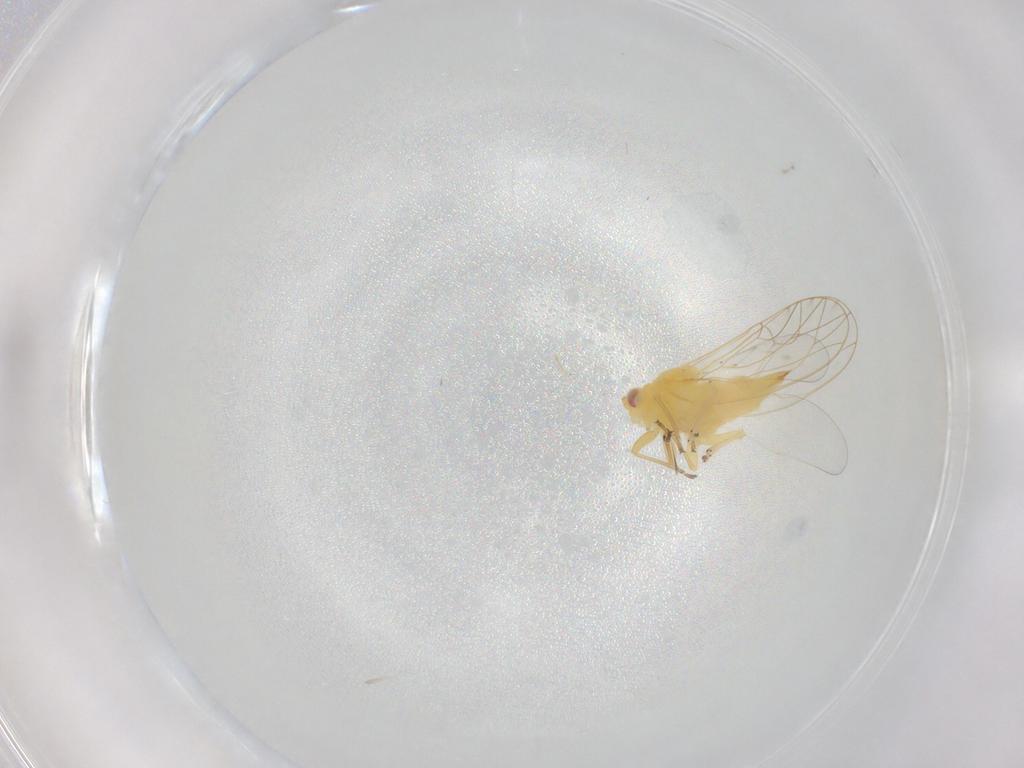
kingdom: Animalia
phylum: Arthropoda
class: Insecta
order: Hemiptera
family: Psyllidae
